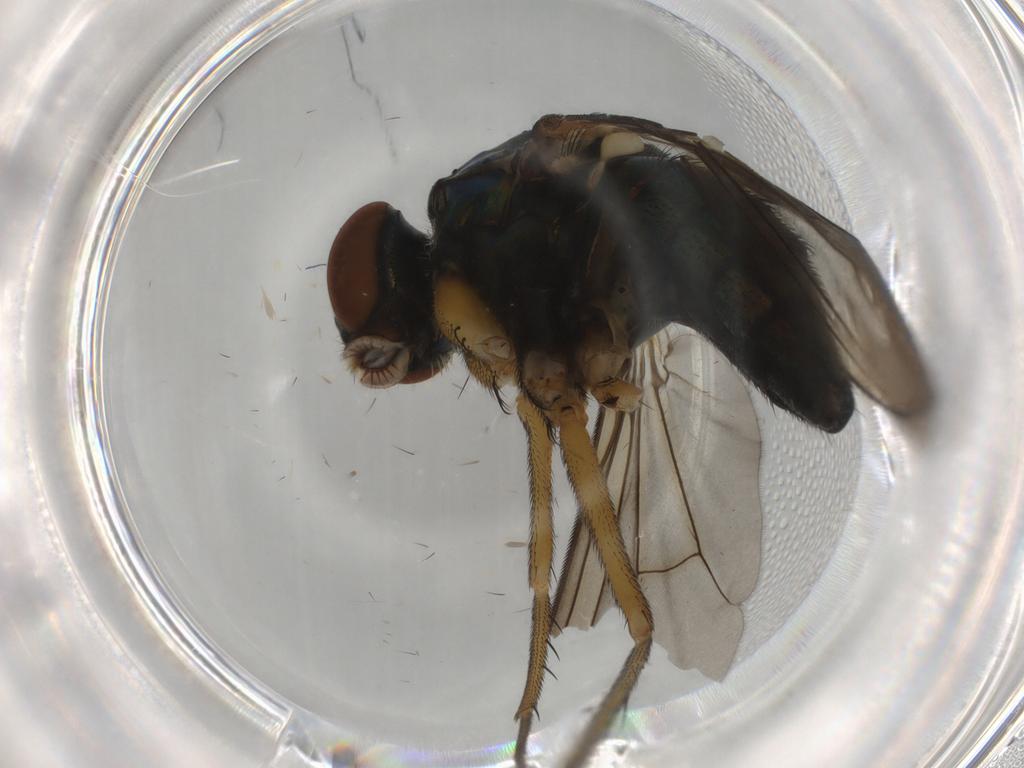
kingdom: Animalia
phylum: Arthropoda
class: Insecta
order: Diptera
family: Dolichopodidae
